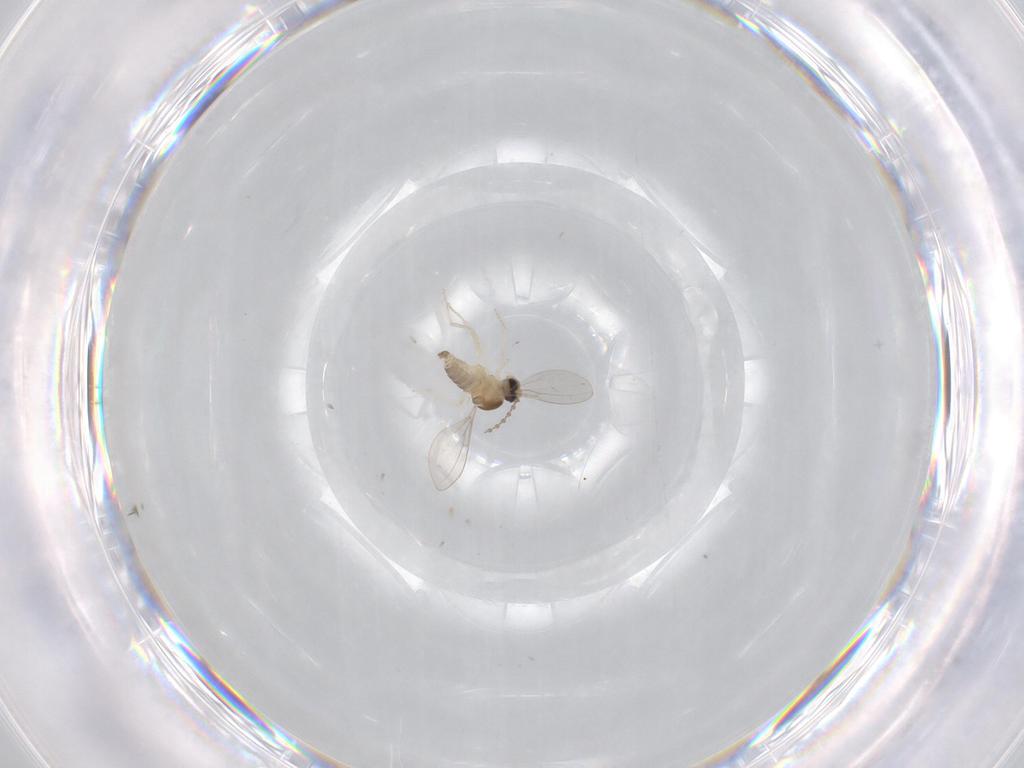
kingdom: Animalia
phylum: Arthropoda
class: Insecta
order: Diptera
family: Cecidomyiidae
